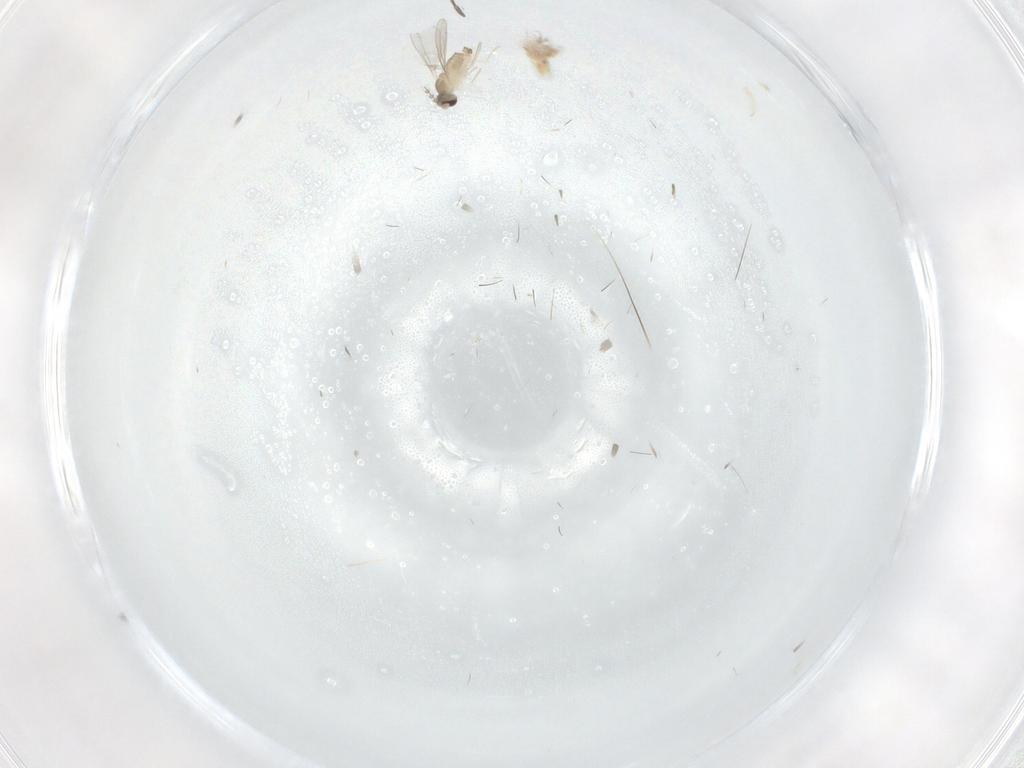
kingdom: Animalia
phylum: Arthropoda
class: Insecta
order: Diptera
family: Cecidomyiidae
